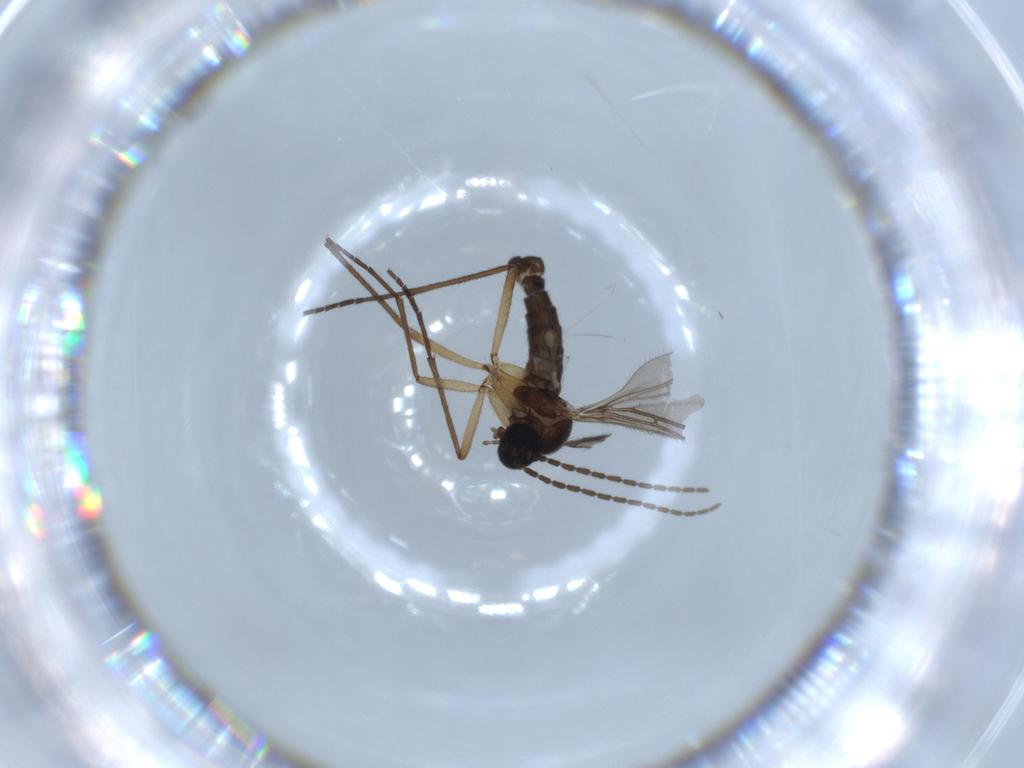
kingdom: Animalia
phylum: Arthropoda
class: Insecta
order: Diptera
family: Sciaridae
